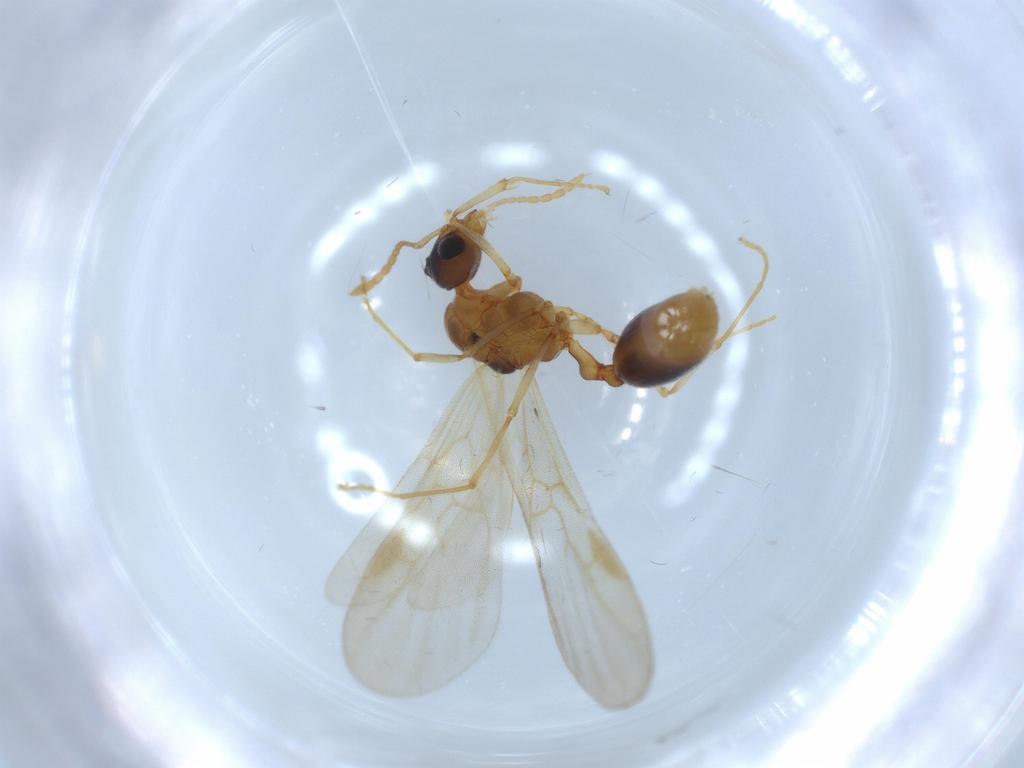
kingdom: Animalia
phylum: Arthropoda
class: Insecta
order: Hymenoptera
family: Formicidae
